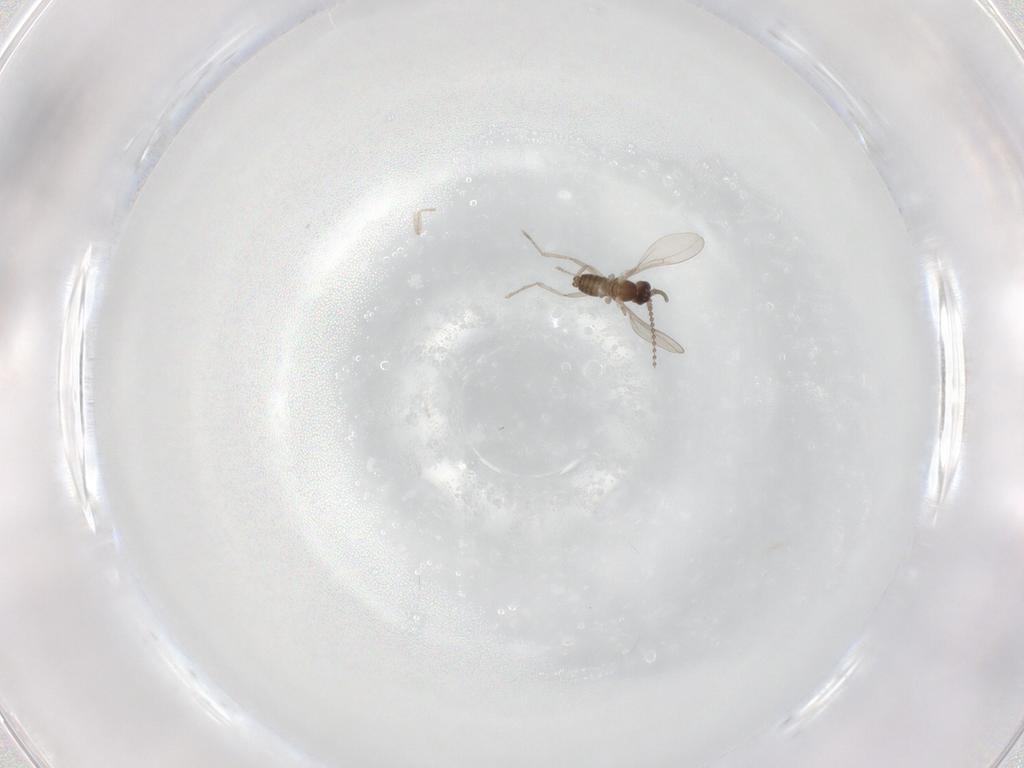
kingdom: Animalia
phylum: Arthropoda
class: Insecta
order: Diptera
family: Cecidomyiidae
